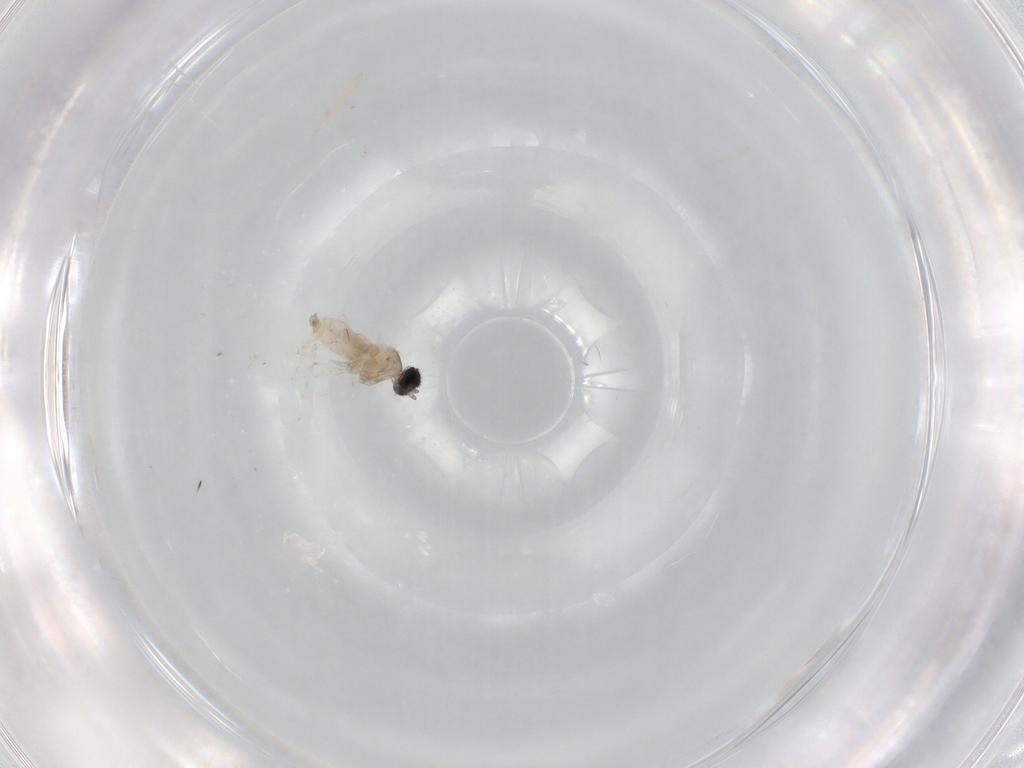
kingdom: Animalia
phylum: Arthropoda
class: Insecta
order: Diptera
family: Cecidomyiidae
